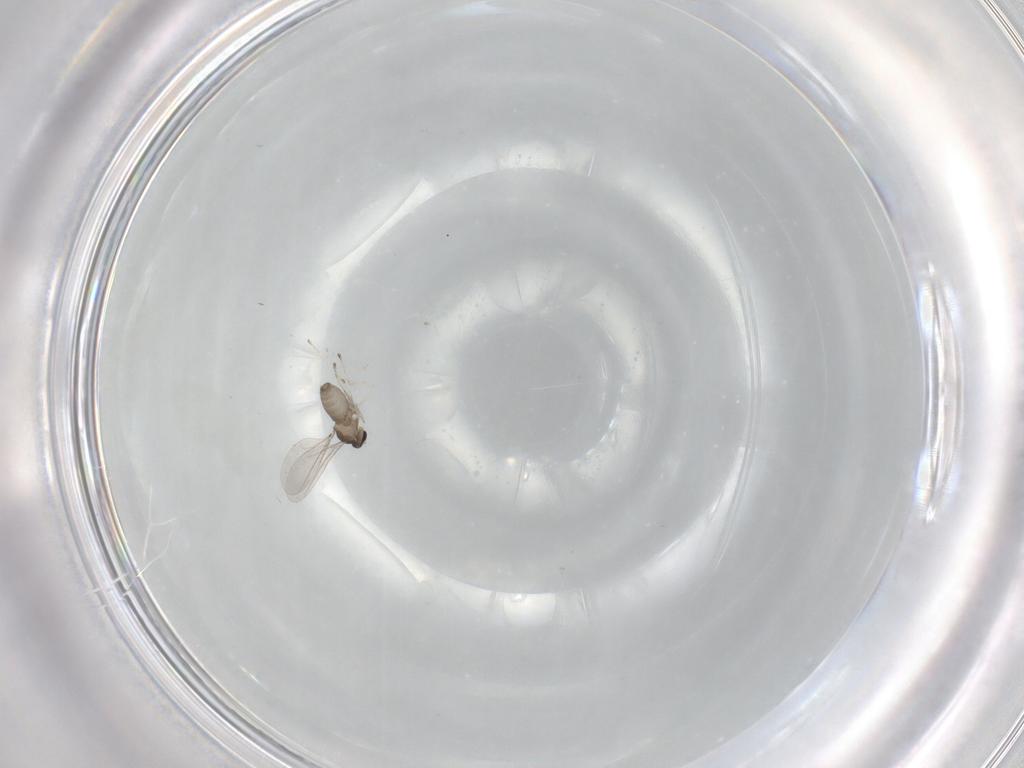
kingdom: Animalia
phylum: Arthropoda
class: Insecta
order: Diptera
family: Cecidomyiidae
